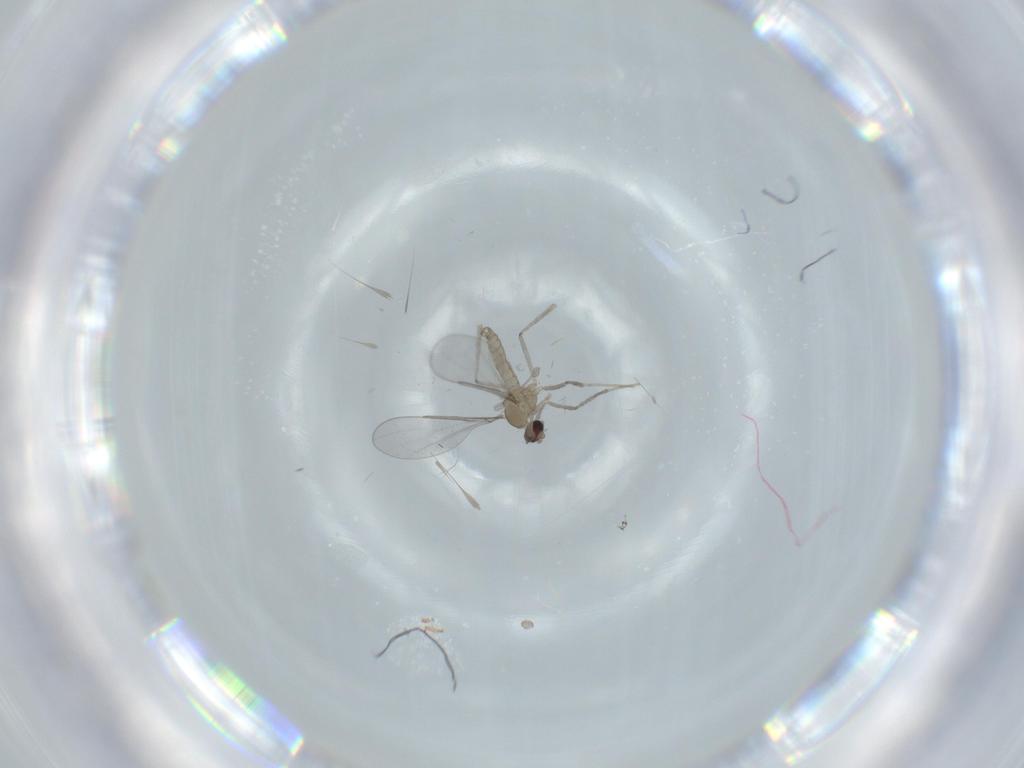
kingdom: Animalia
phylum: Arthropoda
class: Insecta
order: Diptera
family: Cecidomyiidae
